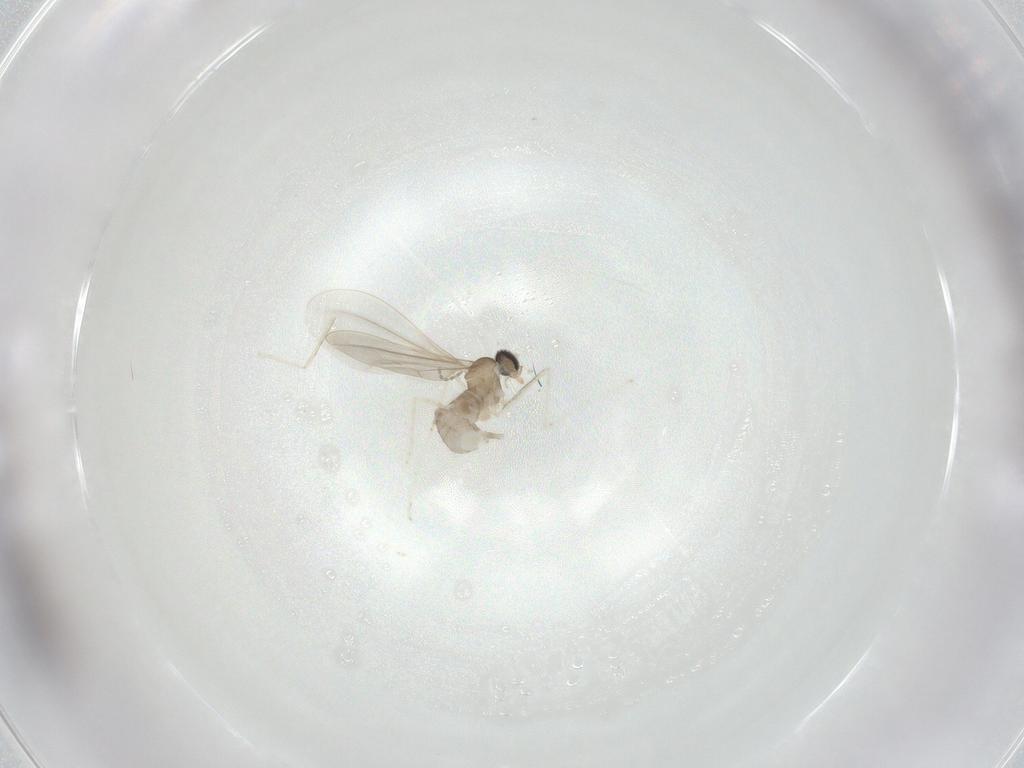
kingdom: Animalia
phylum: Arthropoda
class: Insecta
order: Diptera
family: Cecidomyiidae
